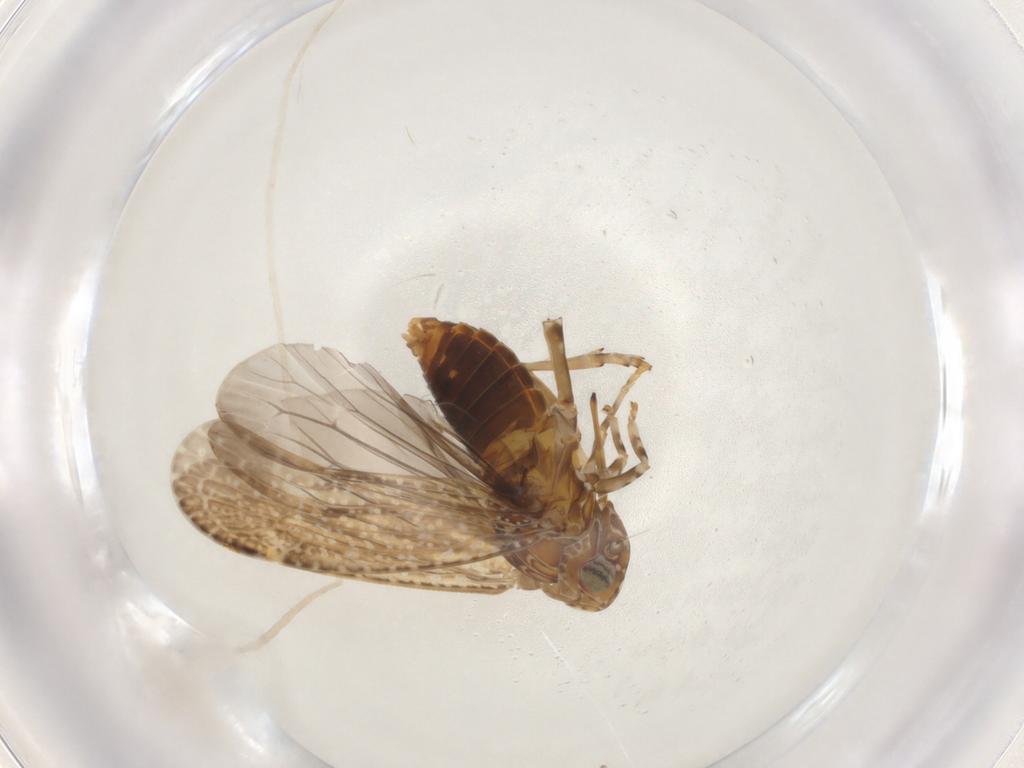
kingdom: Animalia
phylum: Arthropoda
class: Insecta
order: Hemiptera
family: Achilidae
